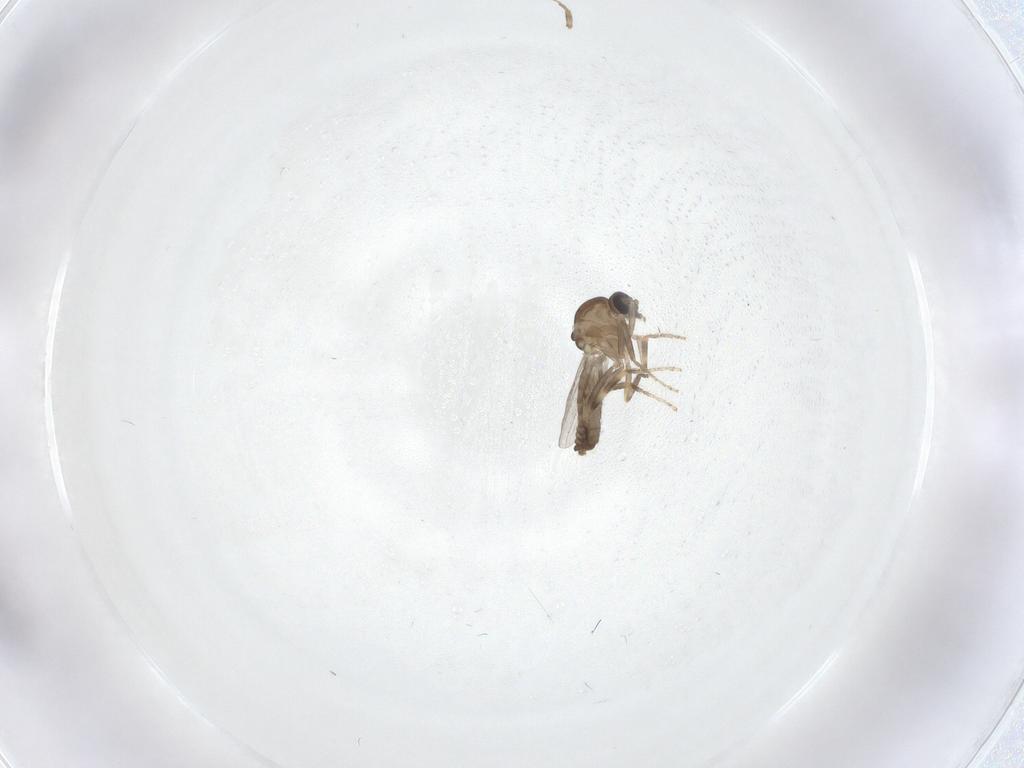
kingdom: Animalia
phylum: Arthropoda
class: Insecta
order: Diptera
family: Ceratopogonidae
